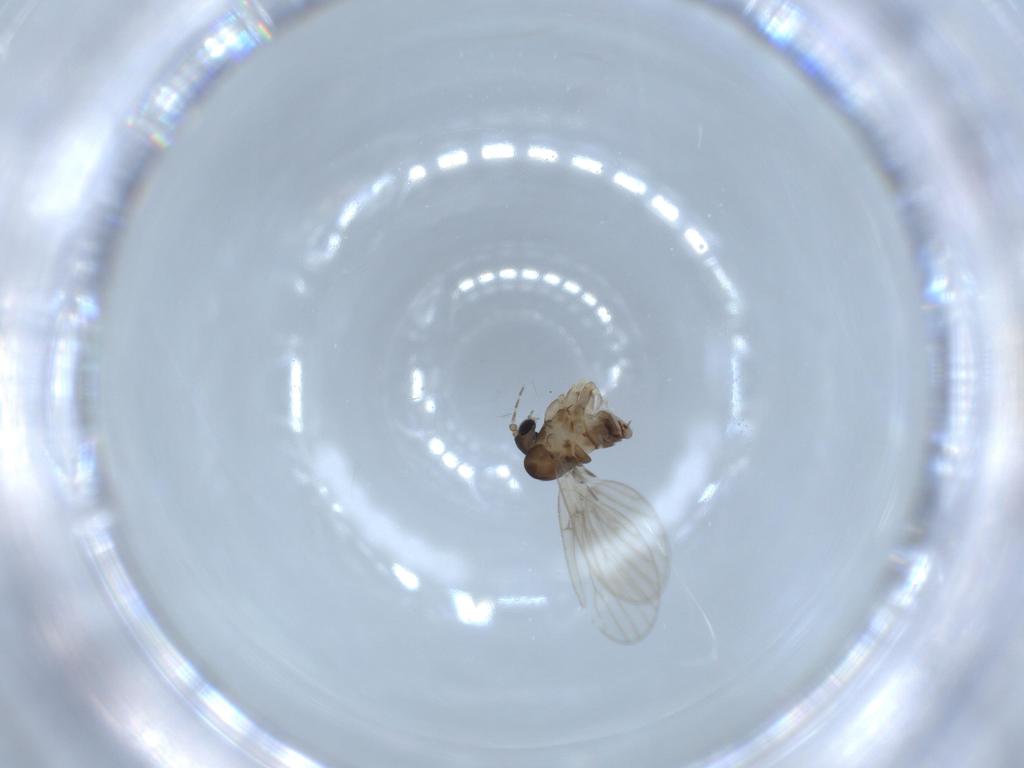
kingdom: Animalia
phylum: Arthropoda
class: Insecta
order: Diptera
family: Psychodidae
